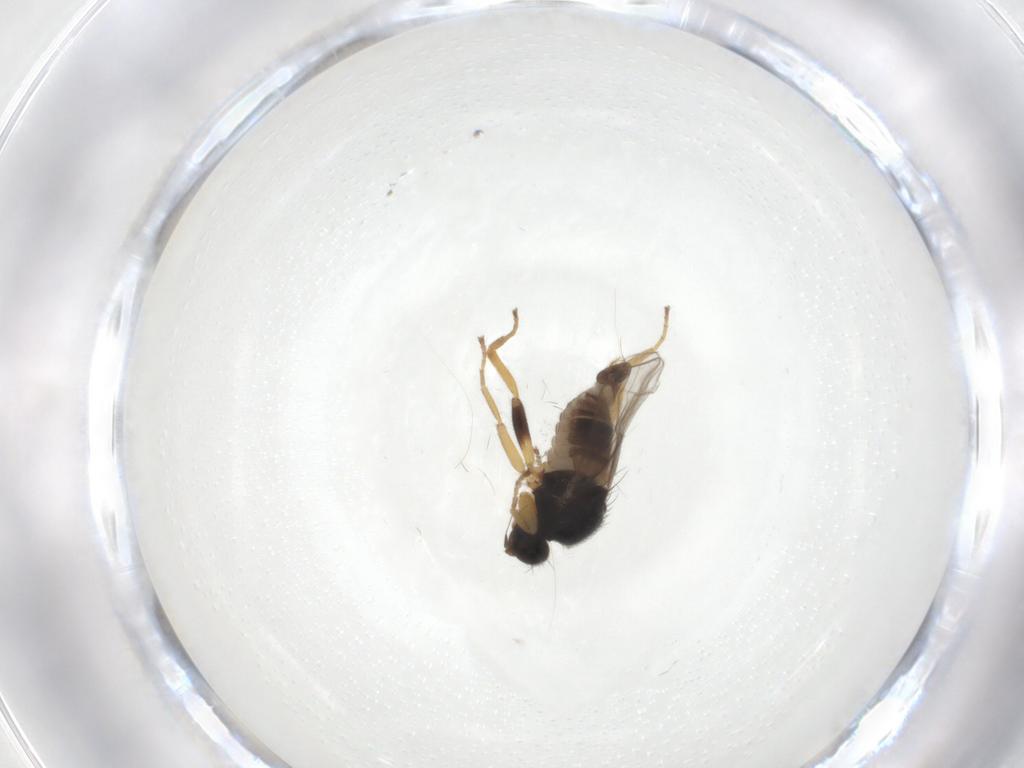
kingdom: Animalia
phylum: Arthropoda
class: Insecta
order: Diptera
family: Hybotidae
